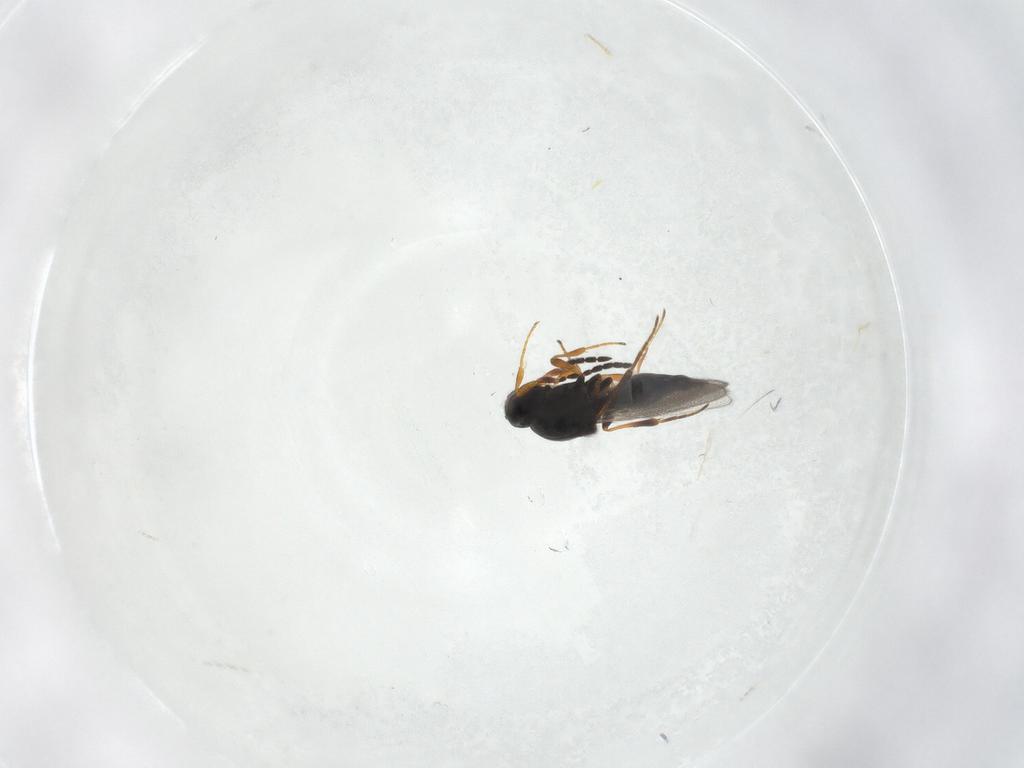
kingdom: Animalia
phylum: Arthropoda
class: Insecta
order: Hymenoptera
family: Platygastridae
